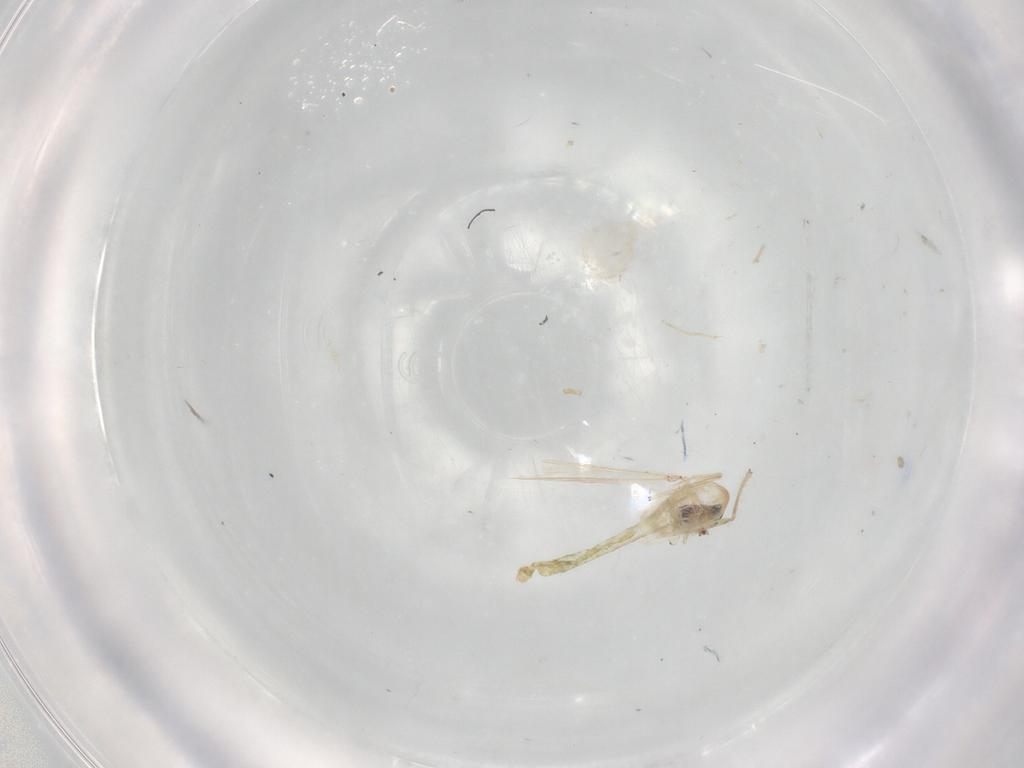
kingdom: Animalia
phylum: Arthropoda
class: Insecta
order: Diptera
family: Chironomidae
